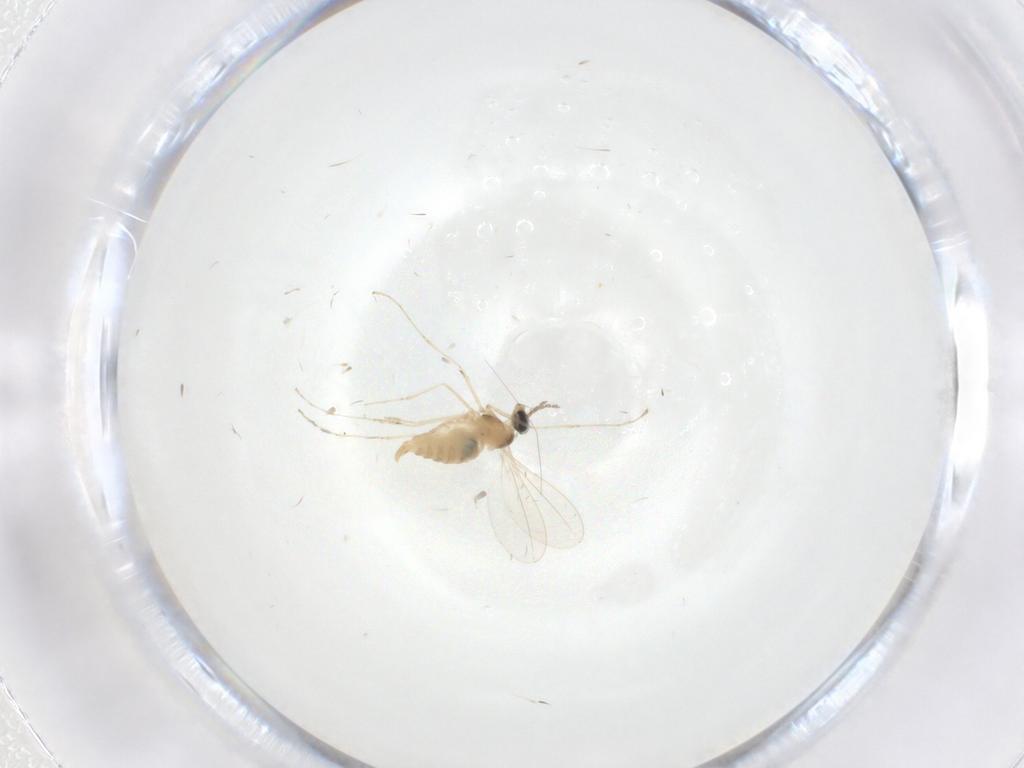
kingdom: Animalia
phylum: Arthropoda
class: Insecta
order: Diptera
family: Cecidomyiidae
